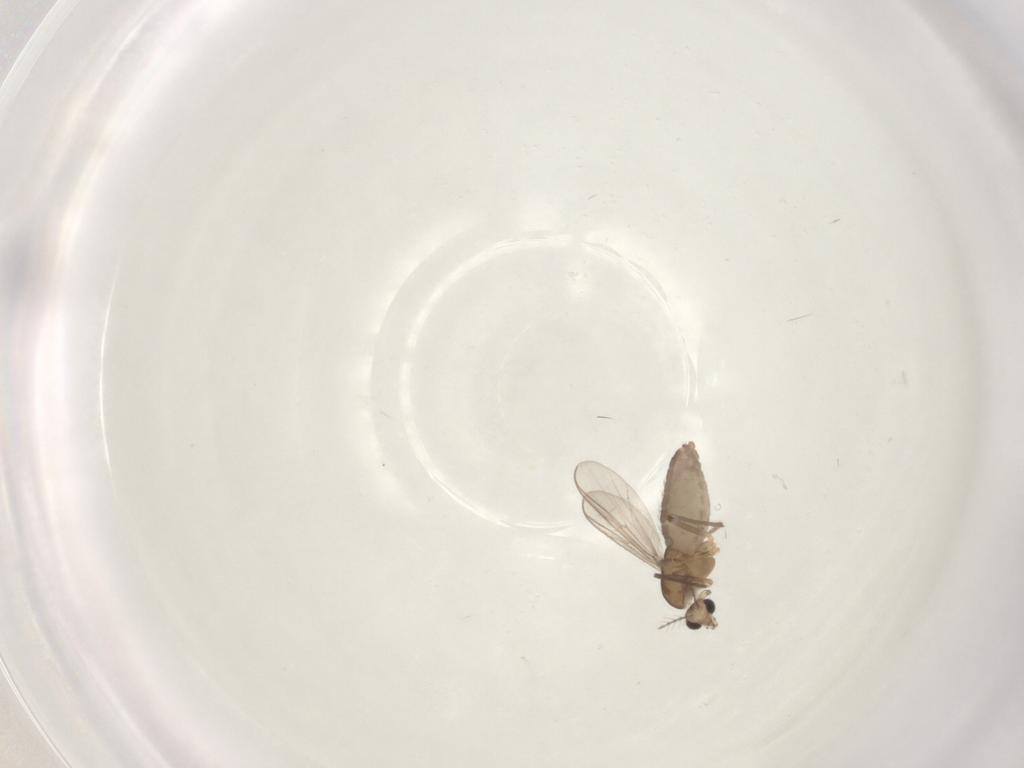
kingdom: Animalia
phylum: Arthropoda
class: Insecta
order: Diptera
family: Chironomidae
